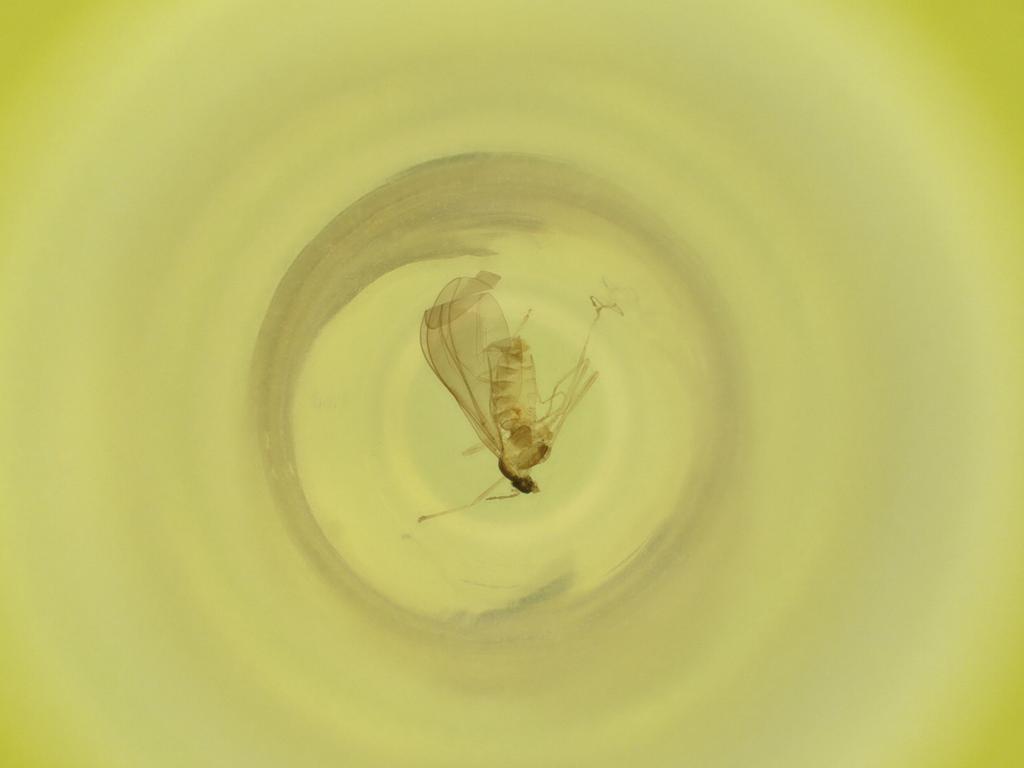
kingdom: Animalia
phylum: Arthropoda
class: Insecta
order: Diptera
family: Cecidomyiidae
